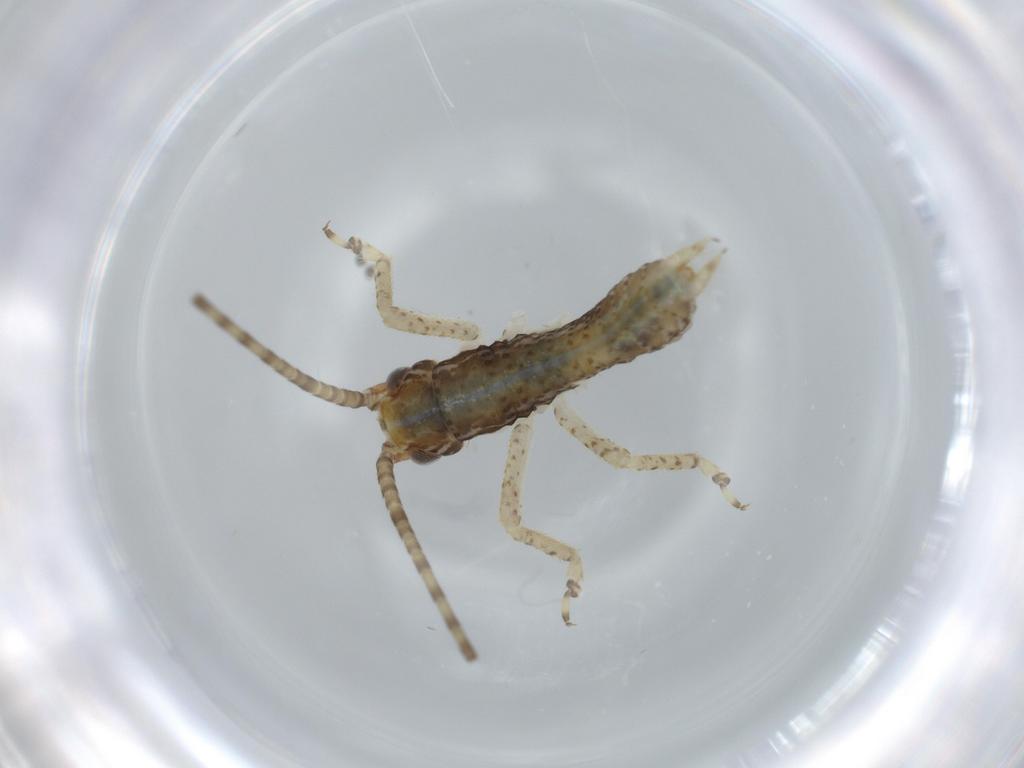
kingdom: Animalia
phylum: Arthropoda
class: Insecta
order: Orthoptera
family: Gryllidae
